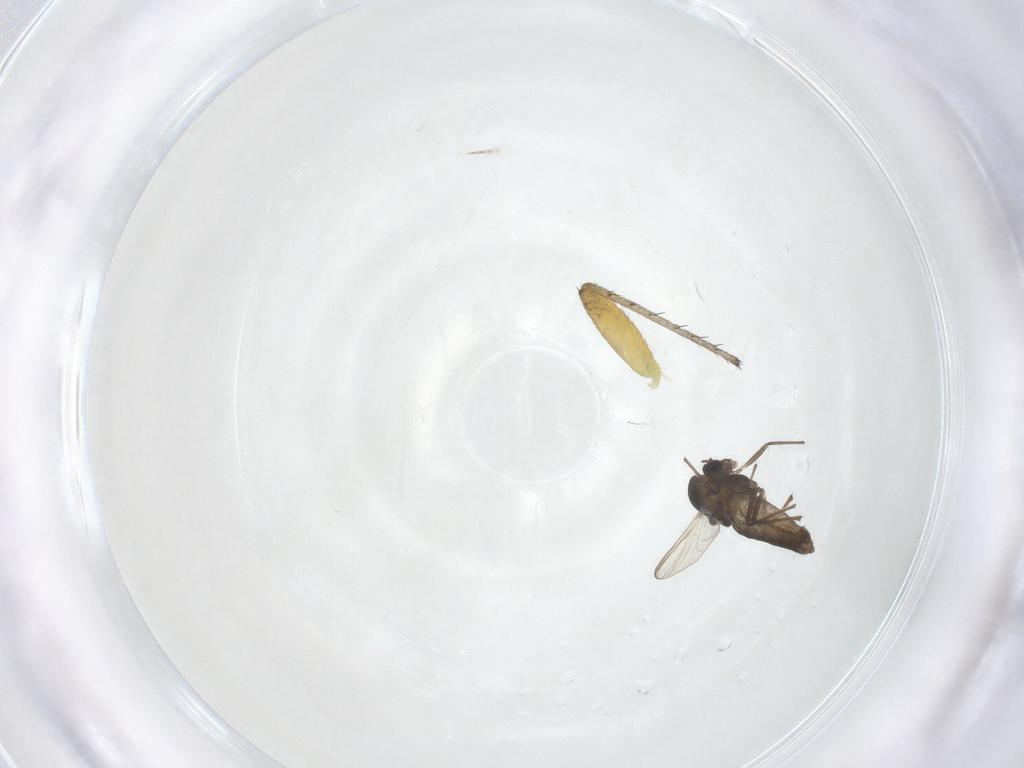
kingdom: Animalia
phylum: Arthropoda
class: Insecta
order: Diptera
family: Chironomidae
